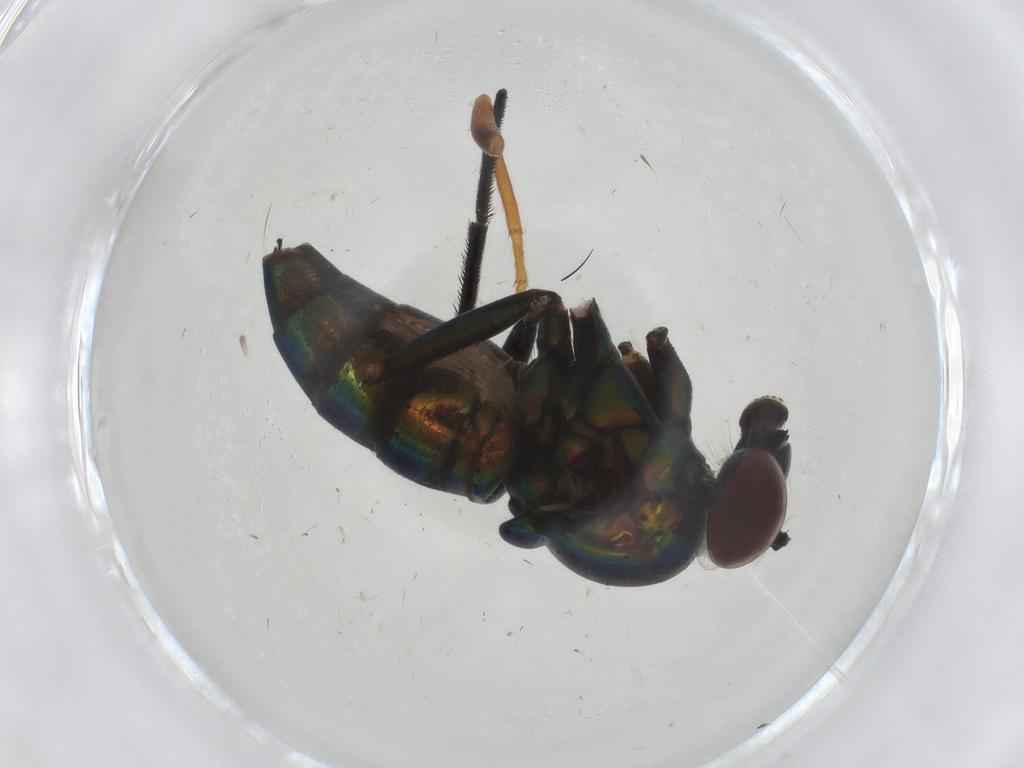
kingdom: Animalia
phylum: Arthropoda
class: Insecta
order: Diptera
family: Dolichopodidae
